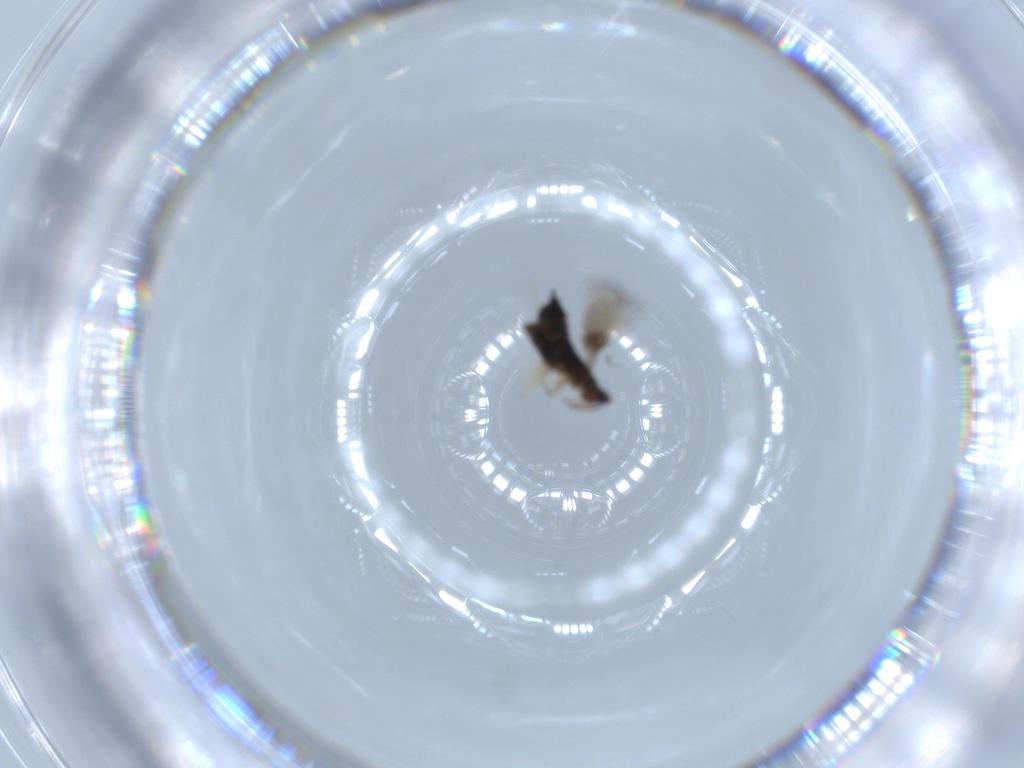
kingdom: Animalia
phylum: Arthropoda
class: Insecta
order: Hymenoptera
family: Signiphoridae
